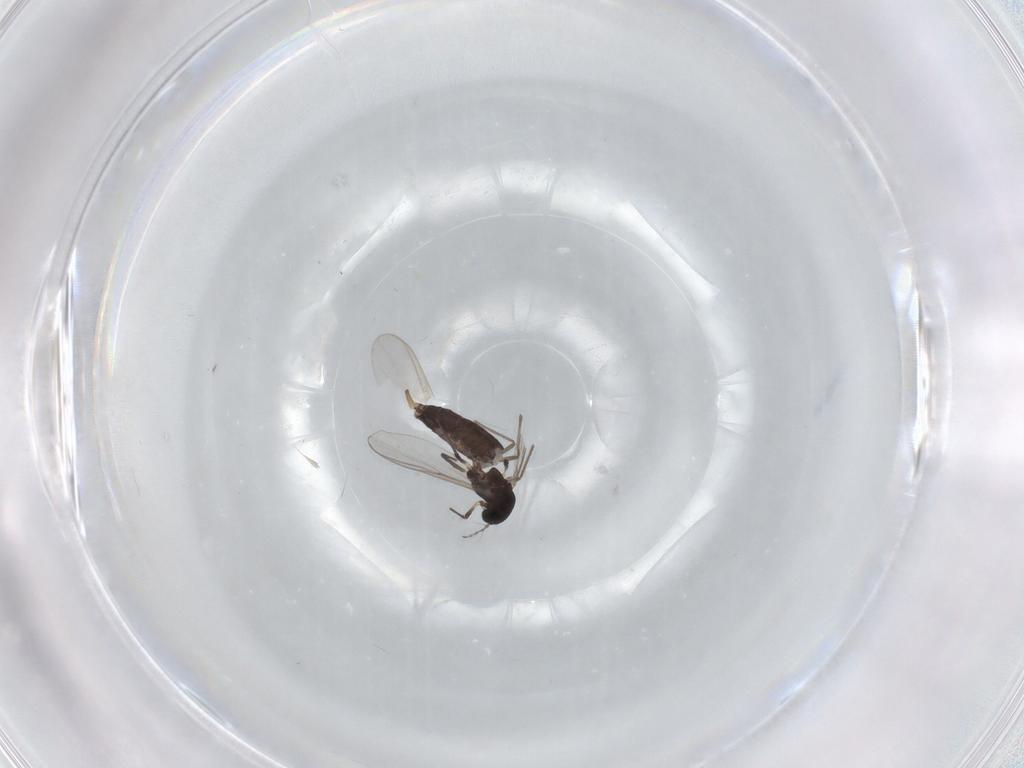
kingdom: Animalia
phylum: Arthropoda
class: Insecta
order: Diptera
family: Chironomidae
